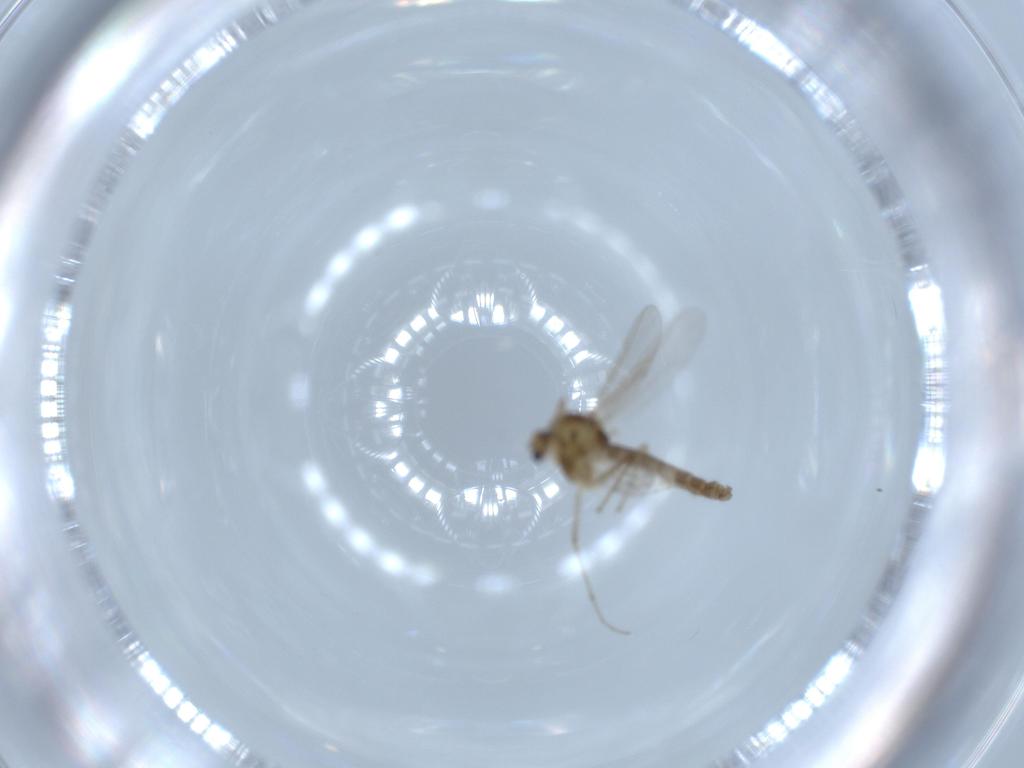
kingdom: Animalia
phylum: Arthropoda
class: Insecta
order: Diptera
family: Chironomidae
